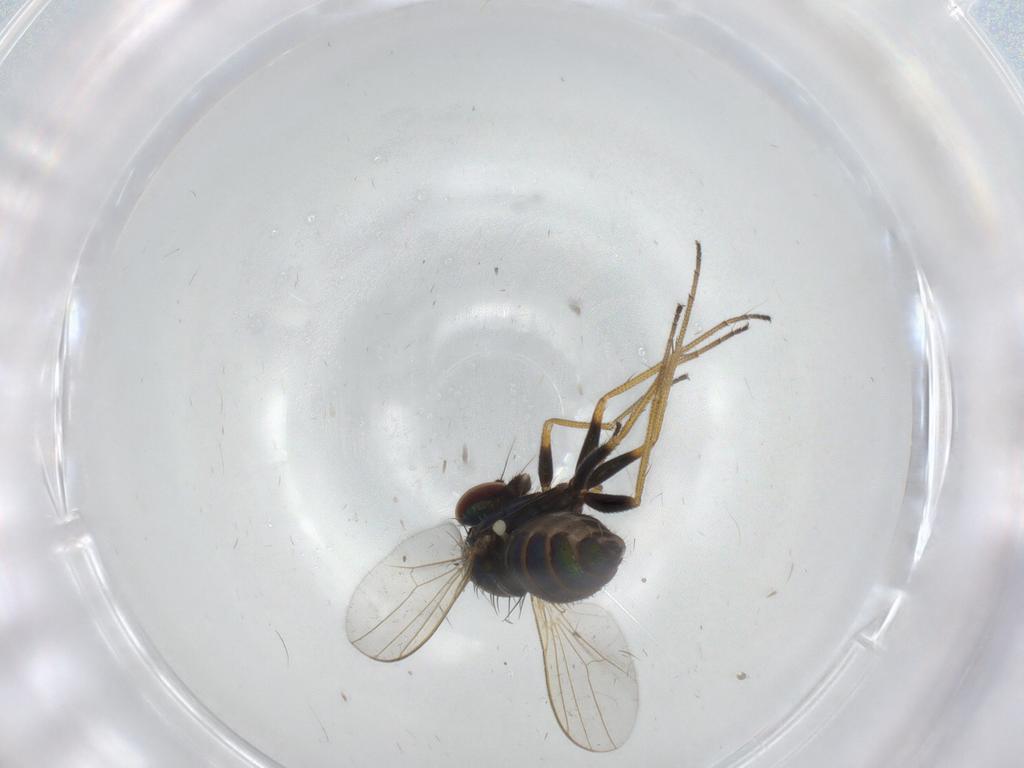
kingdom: Animalia
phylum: Arthropoda
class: Insecta
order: Diptera
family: Dolichopodidae
